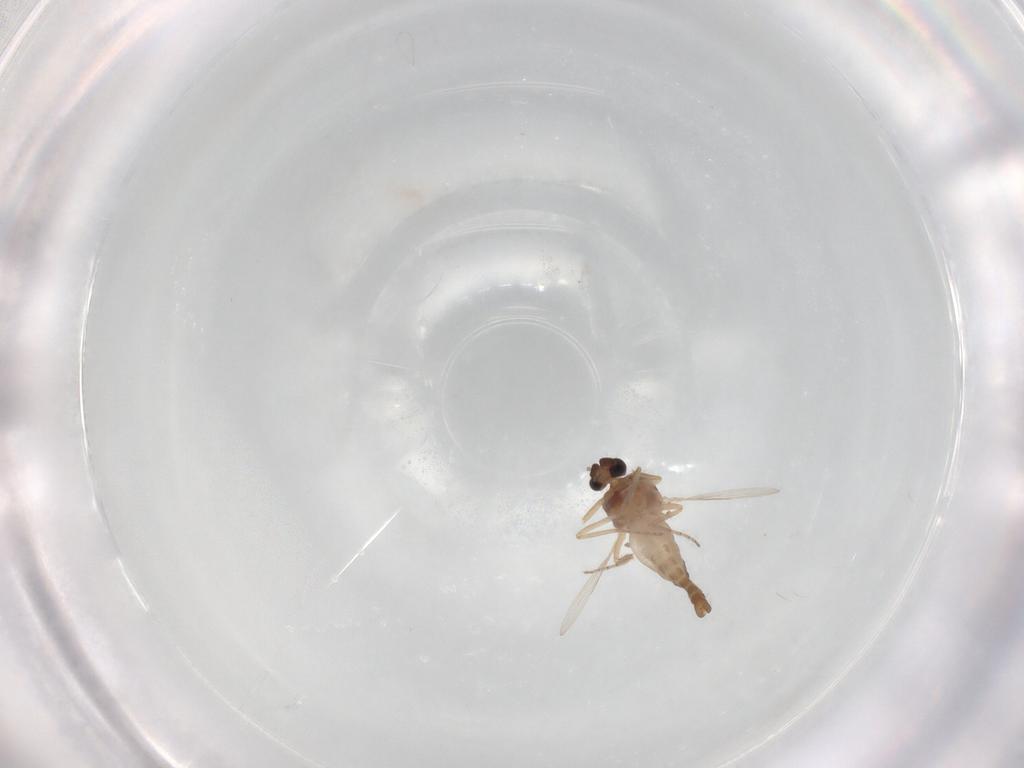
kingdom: Animalia
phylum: Arthropoda
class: Insecta
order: Diptera
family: Ceratopogonidae
